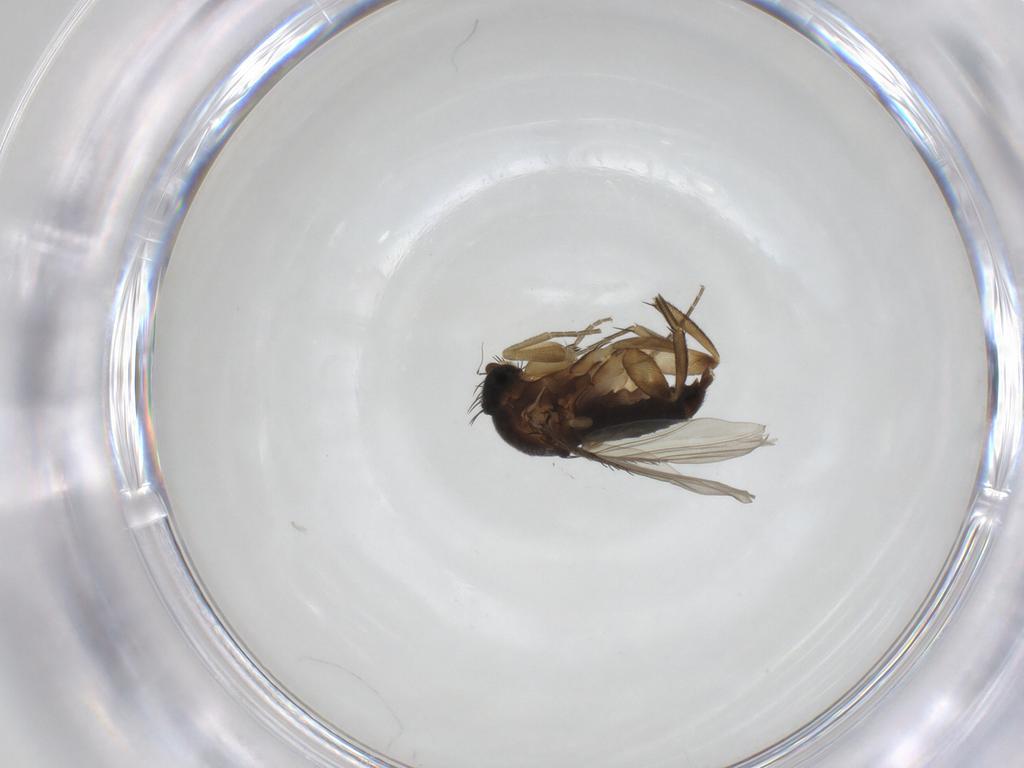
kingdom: Animalia
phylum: Arthropoda
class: Insecta
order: Diptera
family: Phoridae
